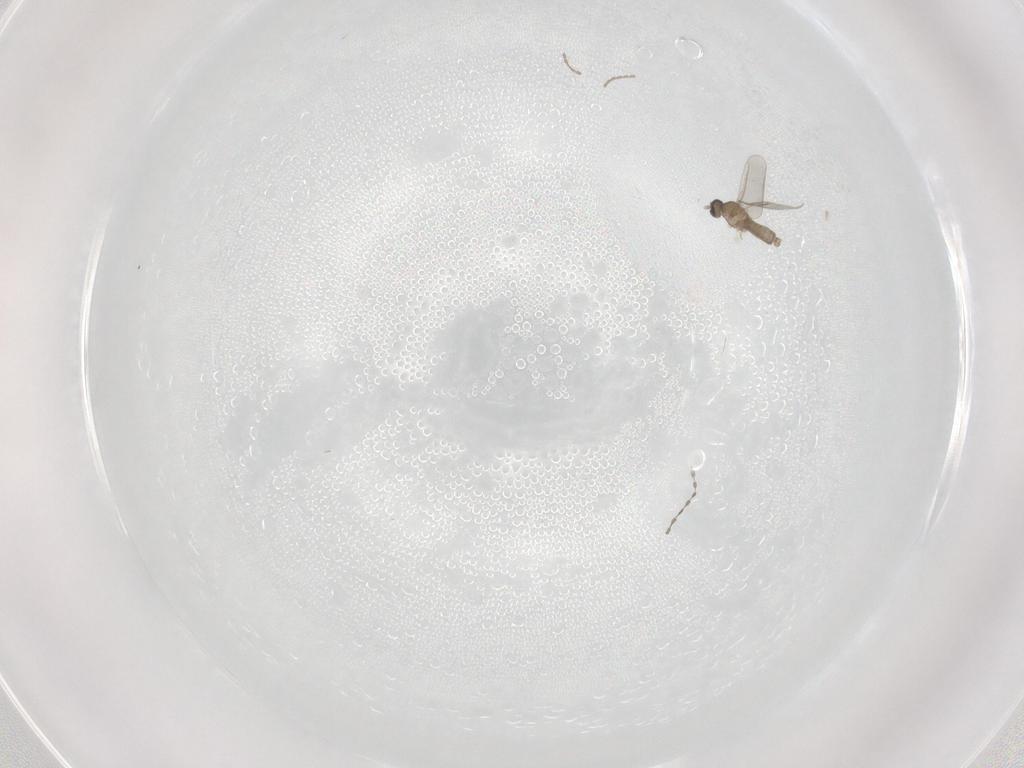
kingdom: Animalia
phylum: Arthropoda
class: Insecta
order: Diptera
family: Cecidomyiidae
